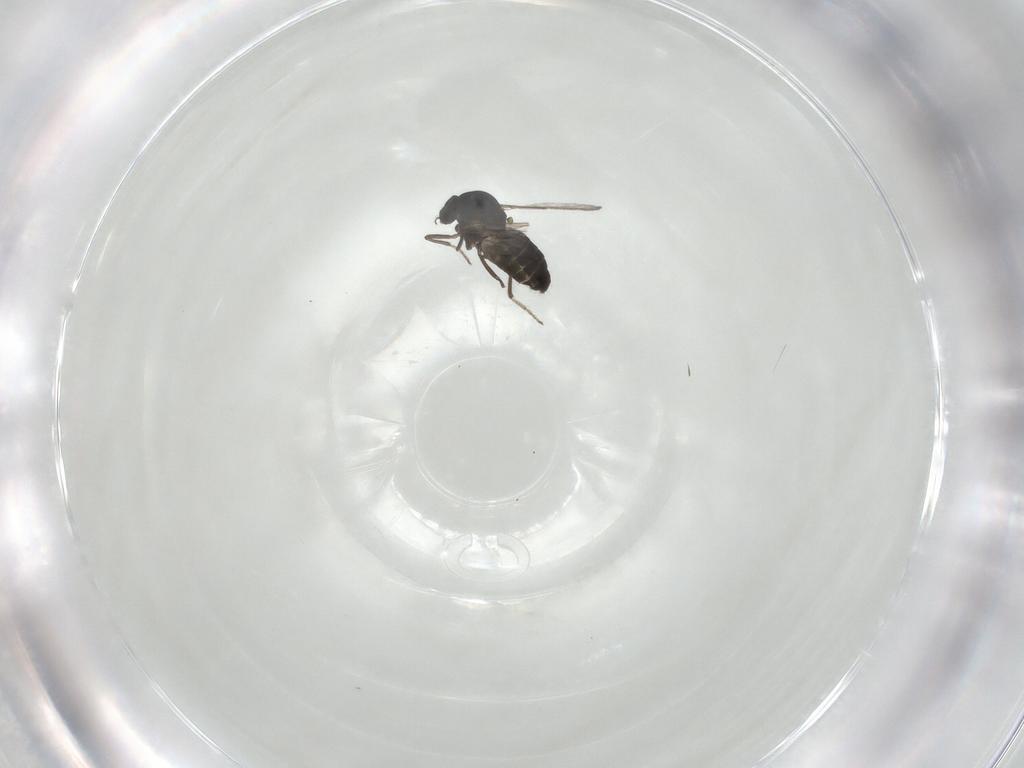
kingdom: Animalia
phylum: Arthropoda
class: Insecta
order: Diptera
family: Ceratopogonidae
